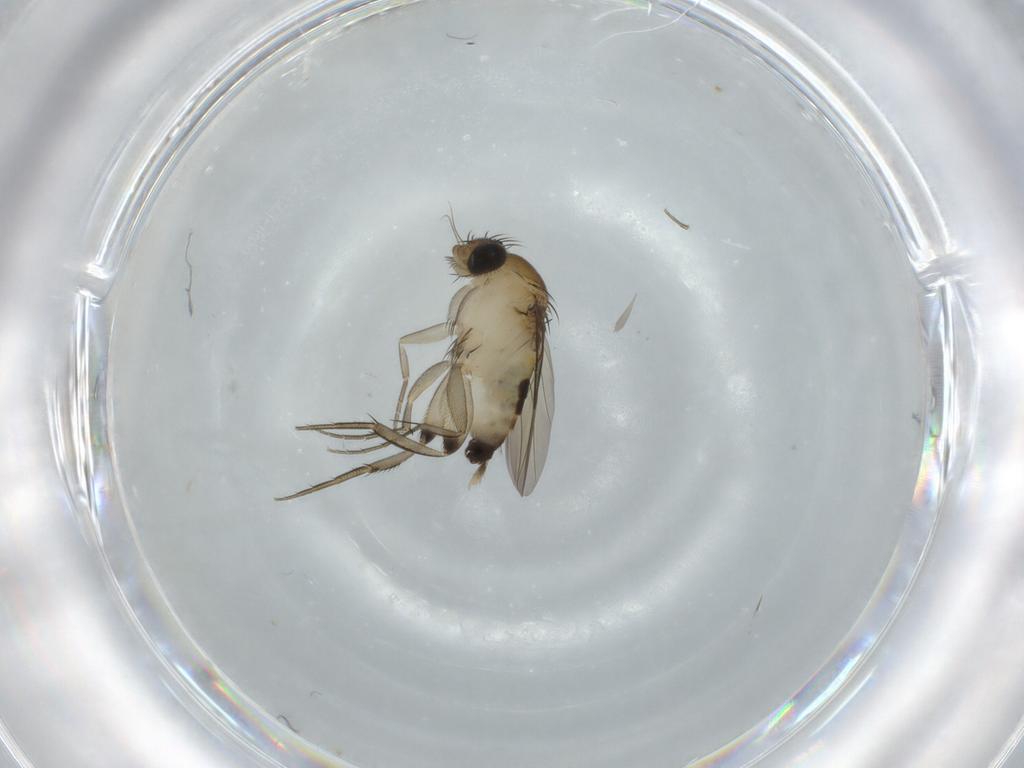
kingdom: Animalia
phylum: Arthropoda
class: Insecta
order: Diptera
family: Phoridae
